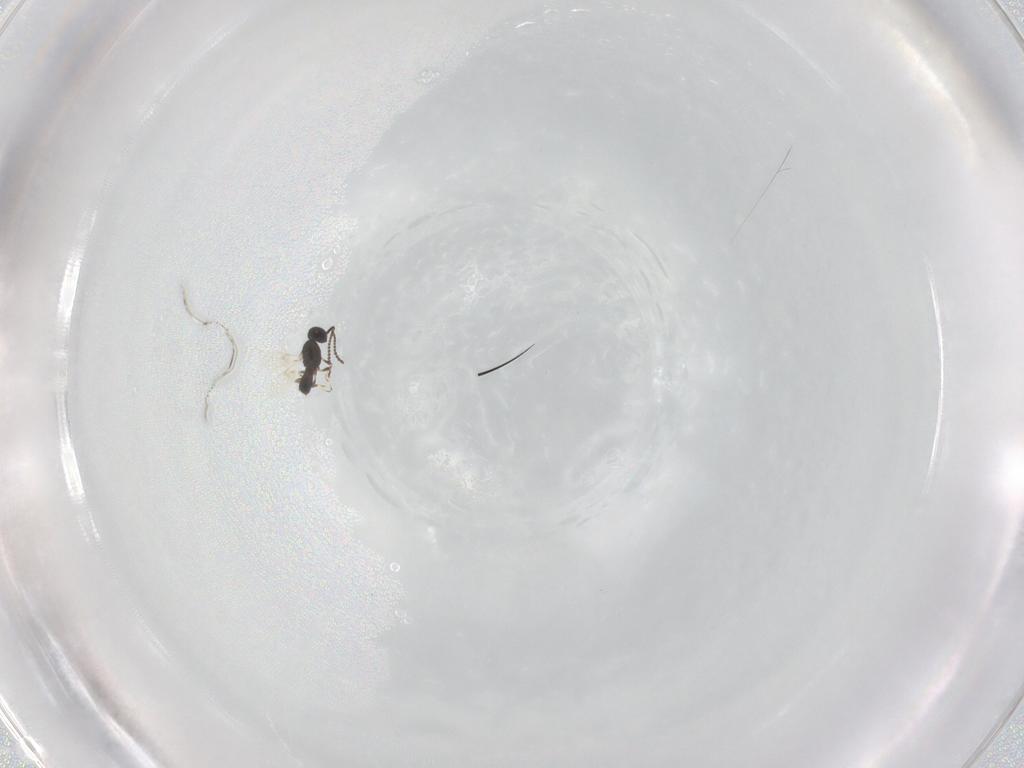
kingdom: Animalia
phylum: Arthropoda
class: Insecta
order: Hymenoptera
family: Scelionidae
